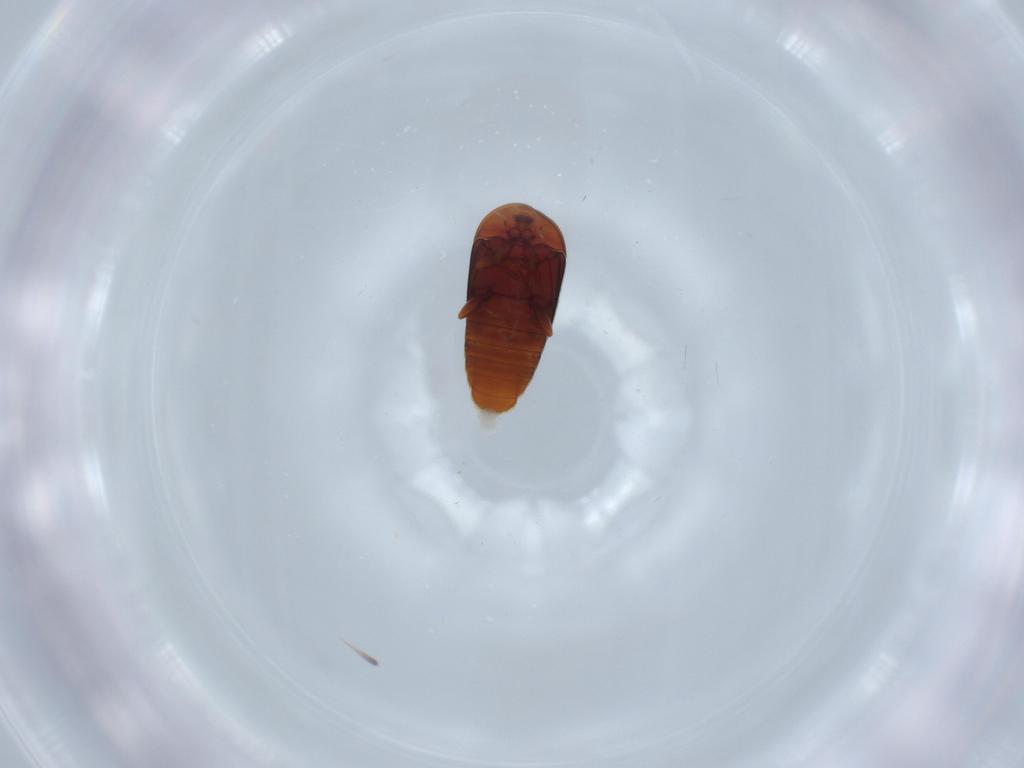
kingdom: Animalia
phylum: Arthropoda
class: Insecta
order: Coleoptera
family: Corylophidae
